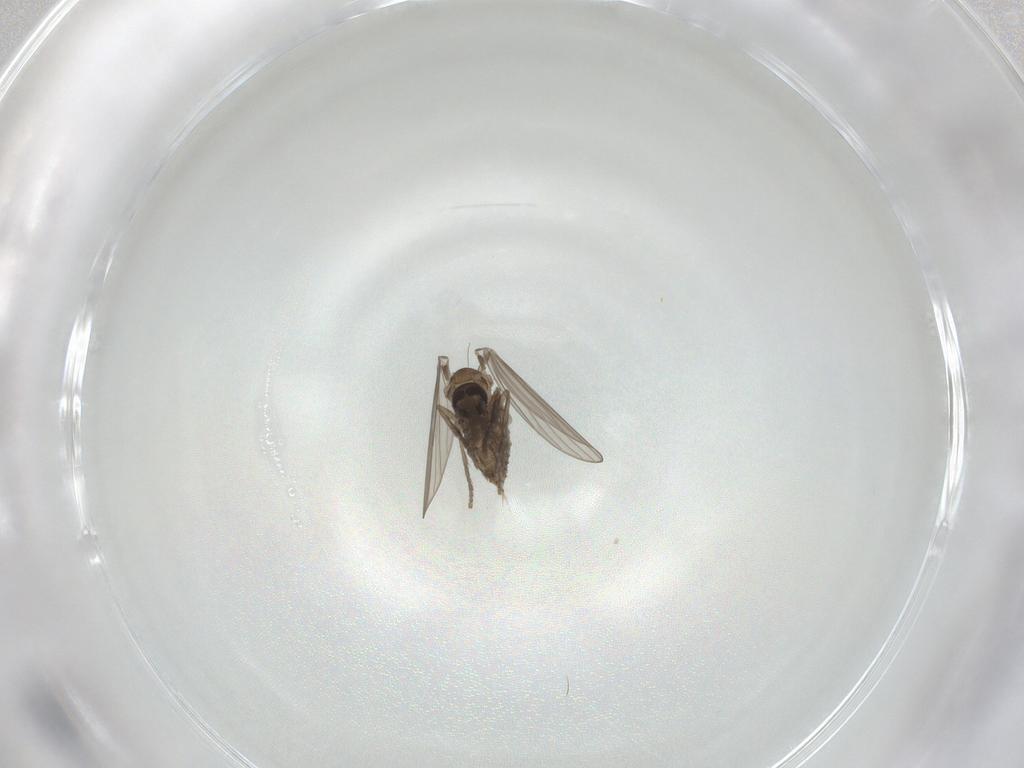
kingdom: Animalia
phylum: Arthropoda
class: Insecta
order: Diptera
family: Psychodidae
